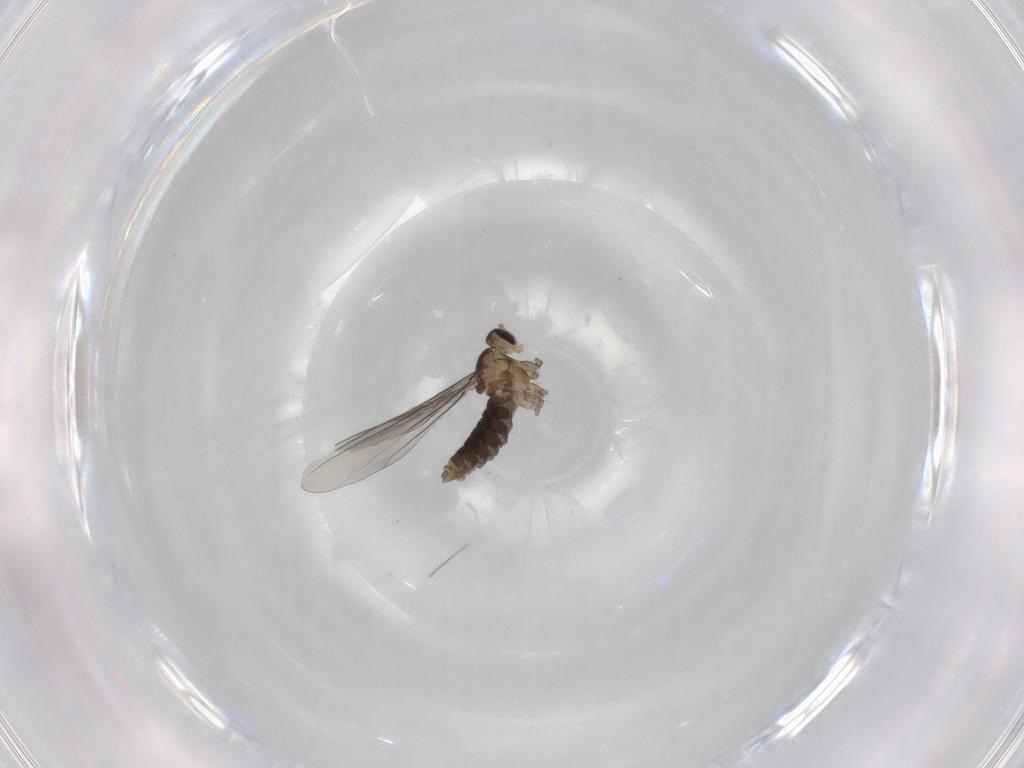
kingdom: Animalia
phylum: Arthropoda
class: Insecta
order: Diptera
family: Cecidomyiidae
